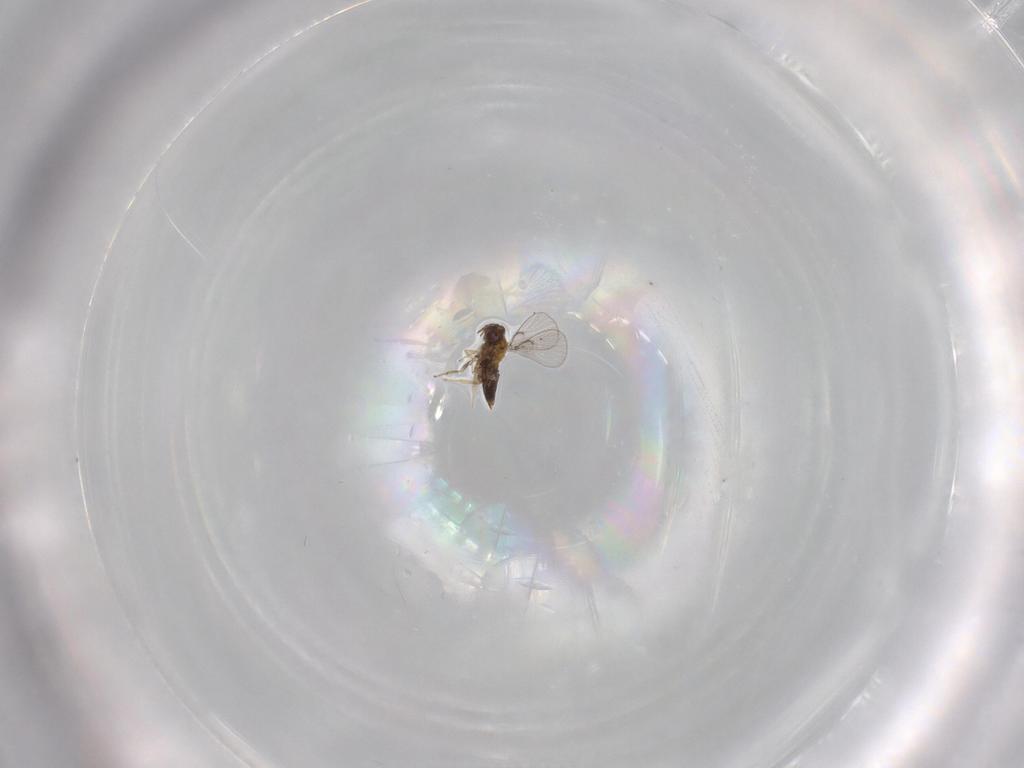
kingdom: Animalia
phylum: Arthropoda
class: Insecta
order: Hymenoptera
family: Trichogrammatidae
